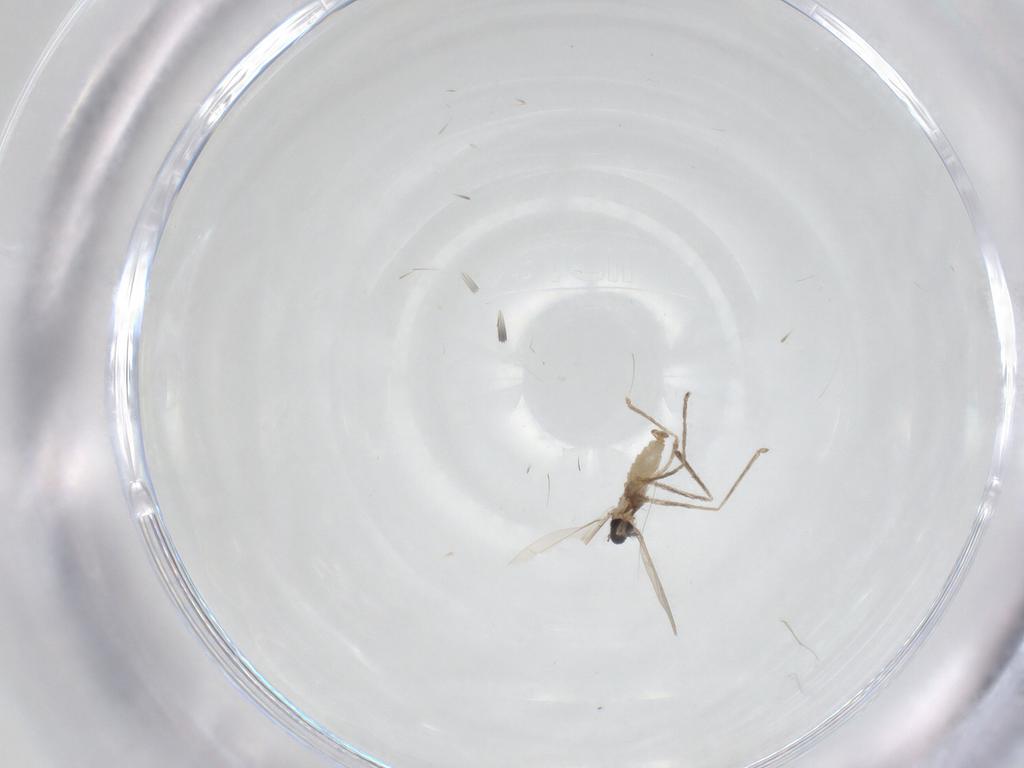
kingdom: Animalia
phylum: Arthropoda
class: Insecta
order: Diptera
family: Cecidomyiidae
